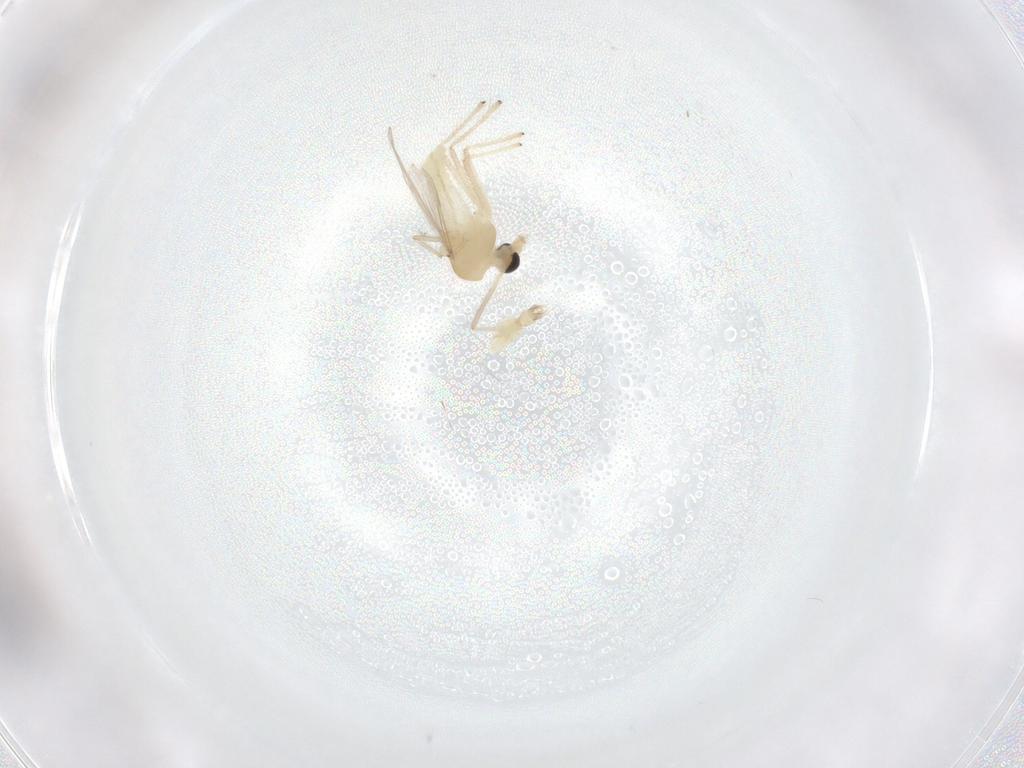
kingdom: Animalia
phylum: Arthropoda
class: Insecta
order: Diptera
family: Chironomidae
